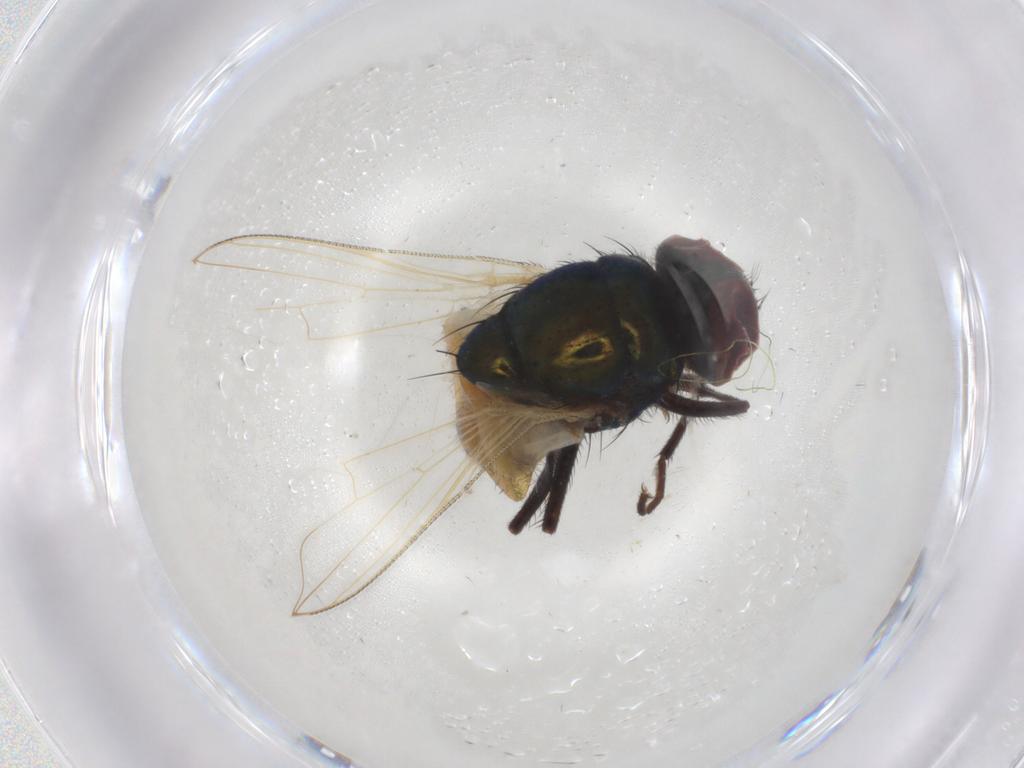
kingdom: Animalia
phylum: Arthropoda
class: Insecta
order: Diptera
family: Muscidae
